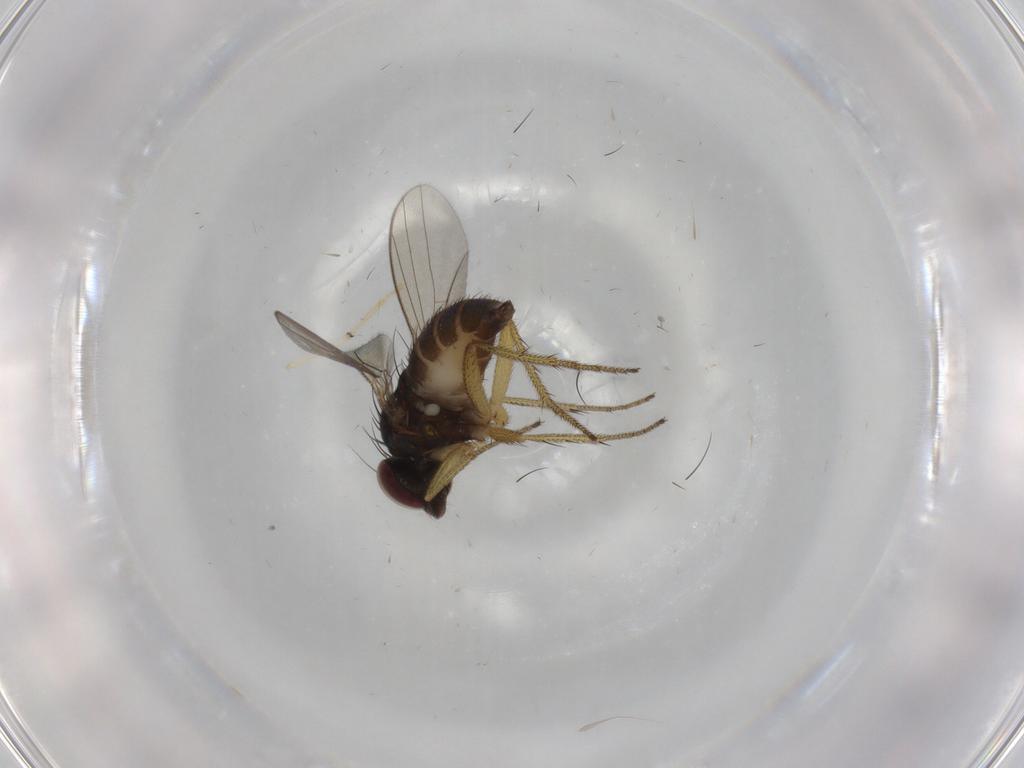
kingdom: Animalia
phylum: Arthropoda
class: Insecta
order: Diptera
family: Dolichopodidae
